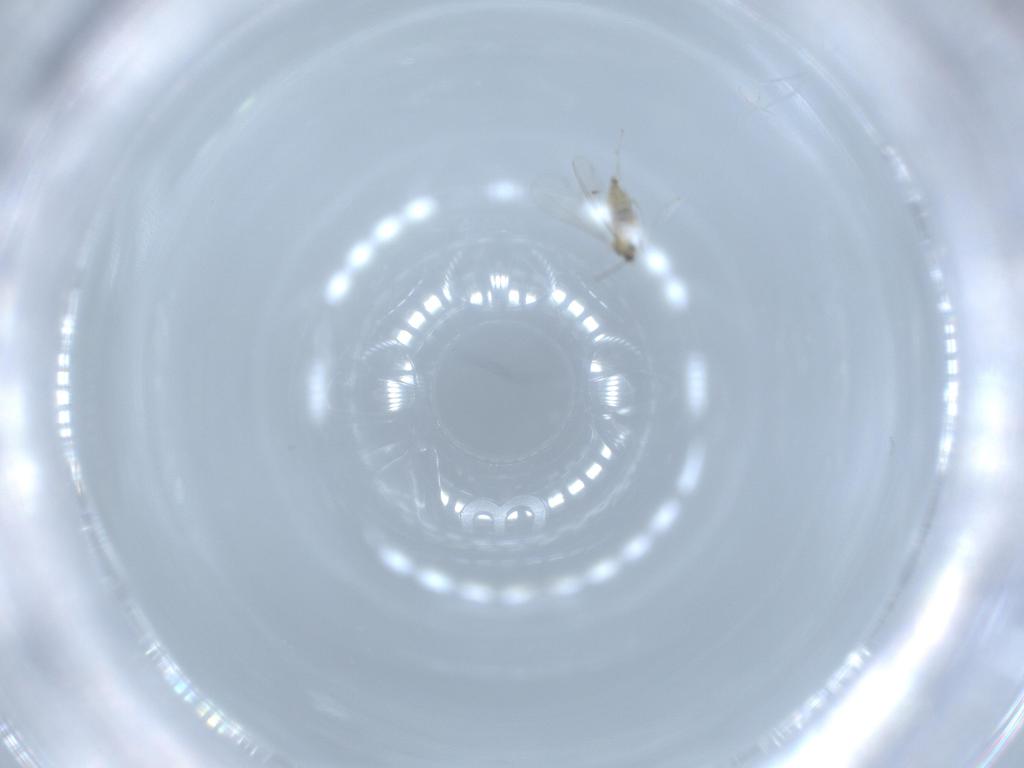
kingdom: Animalia
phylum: Arthropoda
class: Insecta
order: Diptera
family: Cecidomyiidae
